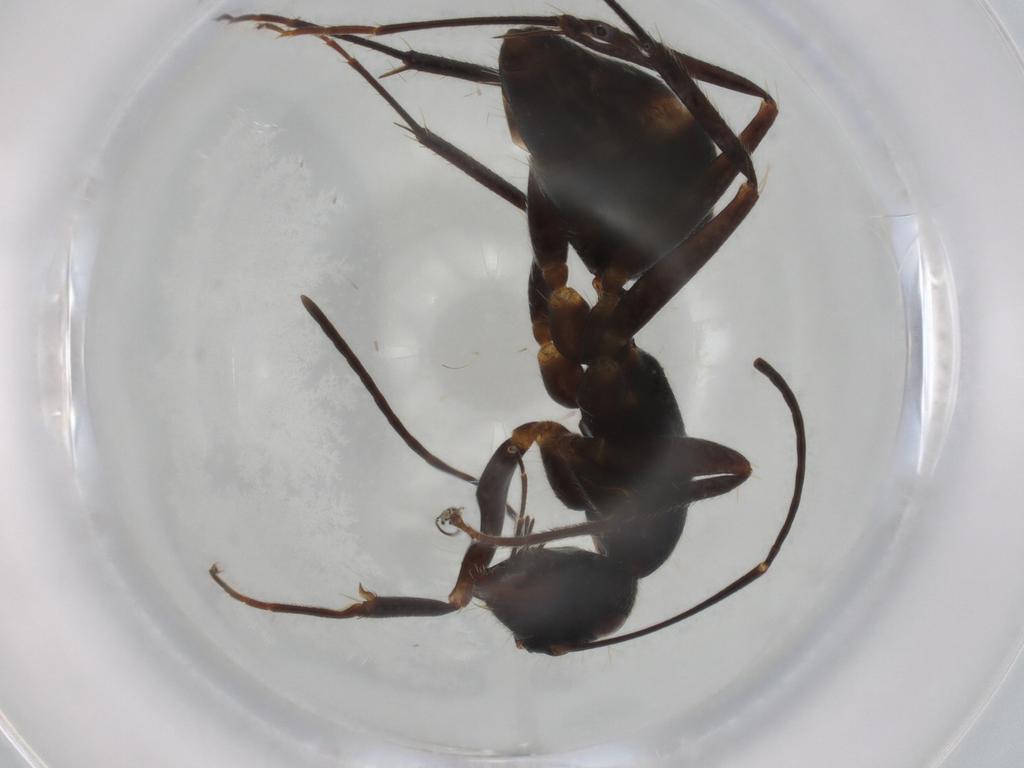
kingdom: Animalia
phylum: Arthropoda
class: Insecta
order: Hymenoptera
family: Formicidae
